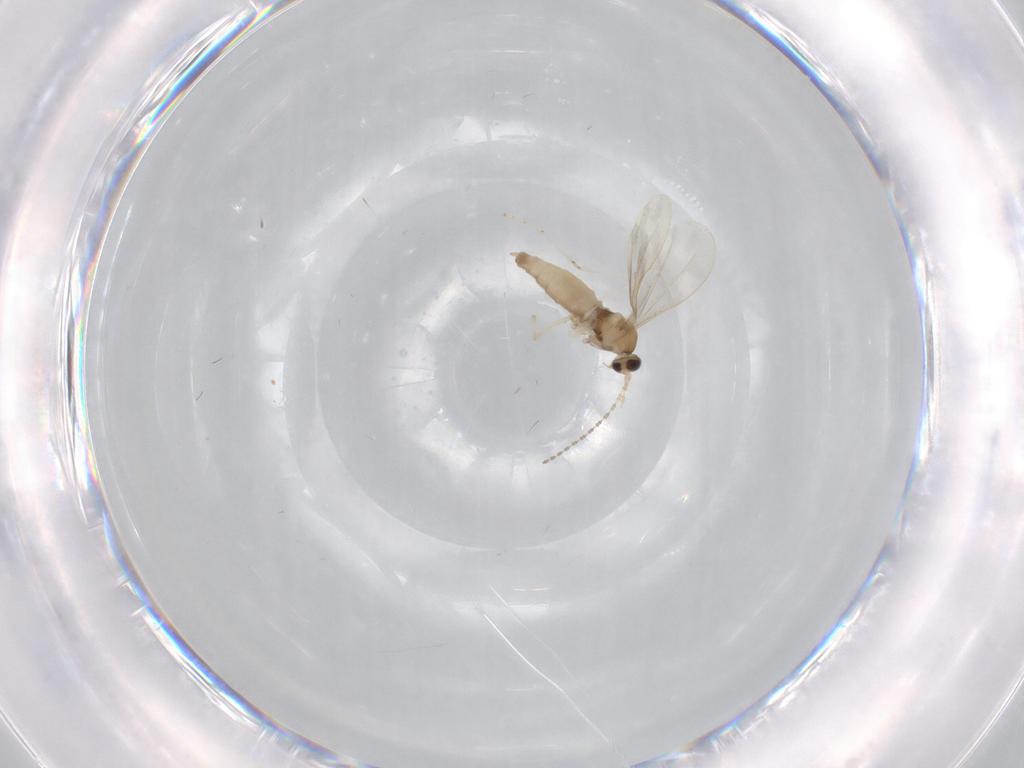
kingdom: Animalia
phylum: Arthropoda
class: Insecta
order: Diptera
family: Cecidomyiidae
